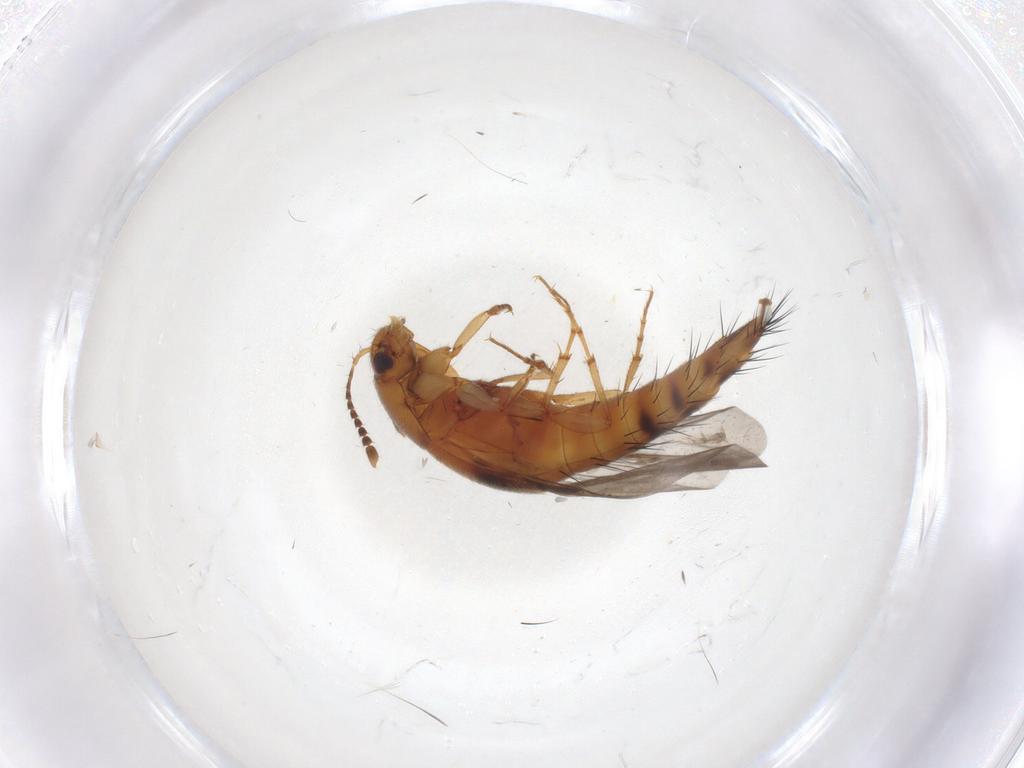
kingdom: Animalia
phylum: Arthropoda
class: Insecta
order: Coleoptera
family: Staphylinidae
